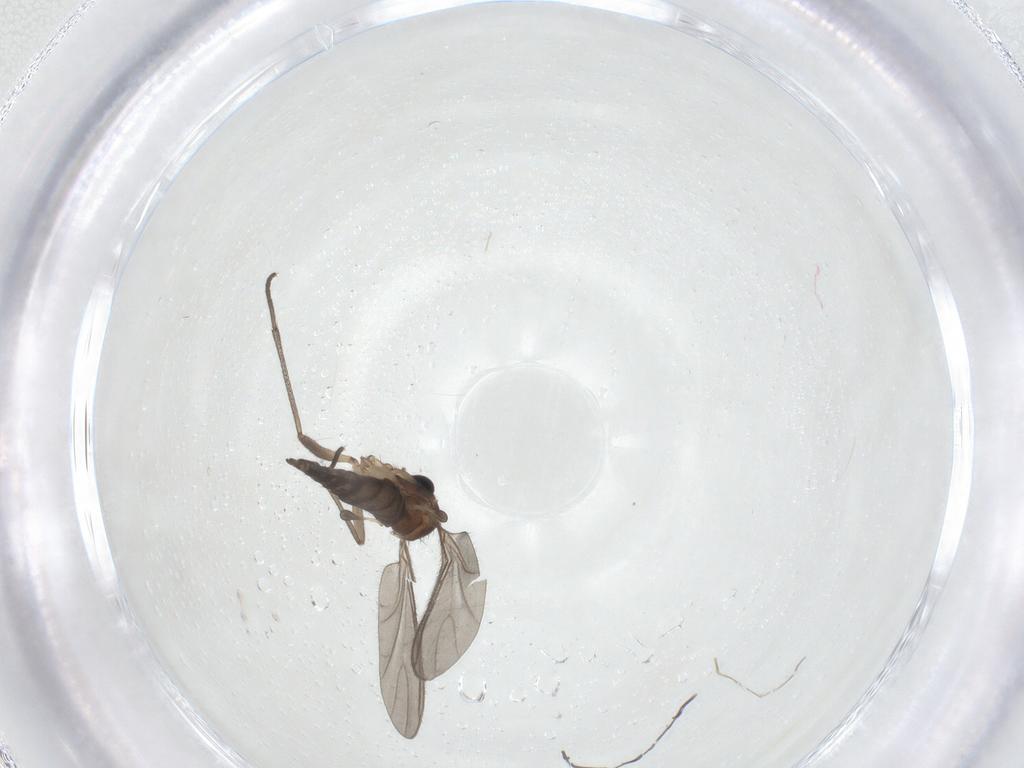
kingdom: Animalia
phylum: Arthropoda
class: Insecta
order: Diptera
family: Sciaridae
